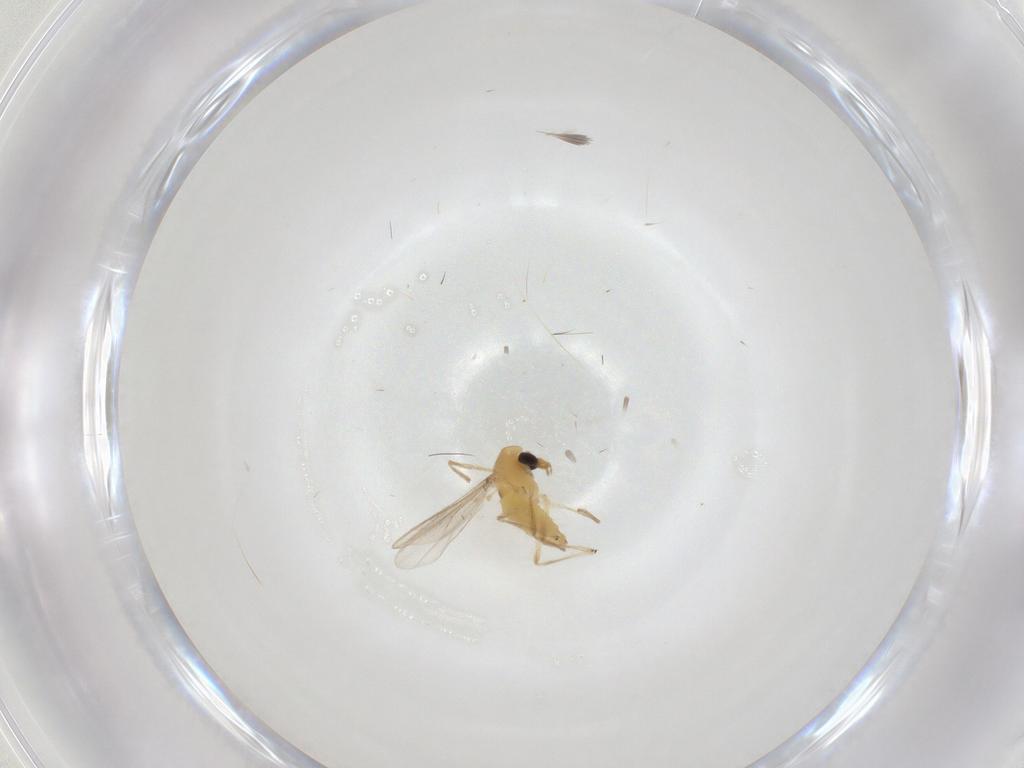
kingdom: Animalia
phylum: Arthropoda
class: Insecta
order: Diptera
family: Chironomidae
